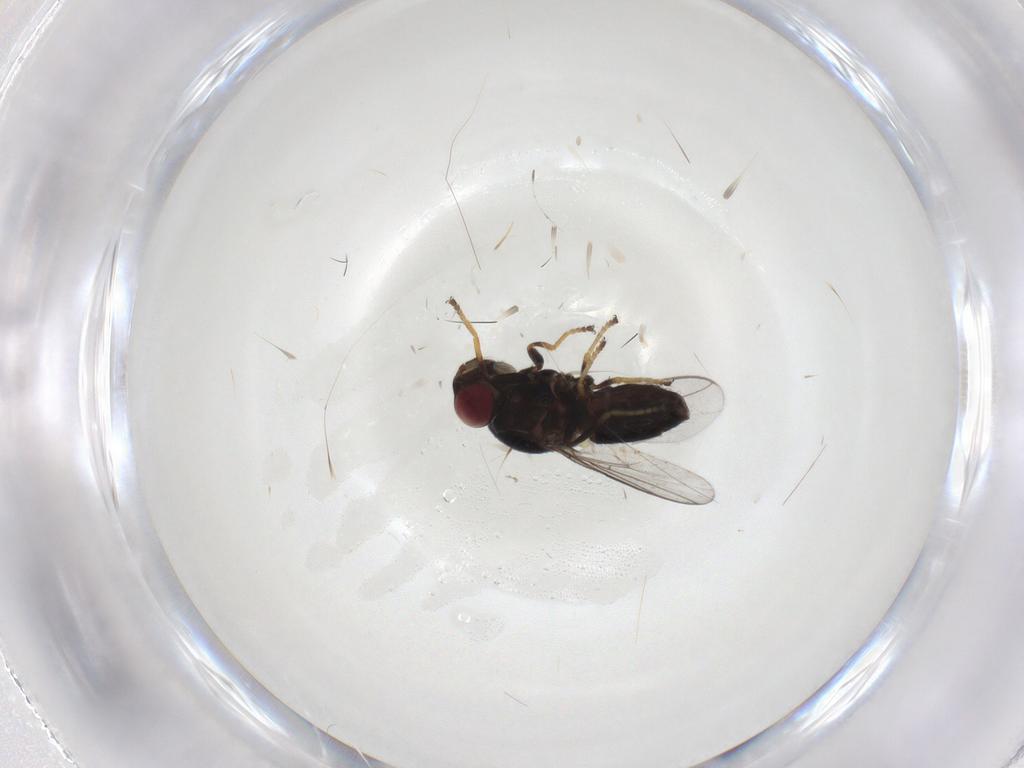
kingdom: Animalia
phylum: Arthropoda
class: Insecta
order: Diptera
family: Chloropidae
